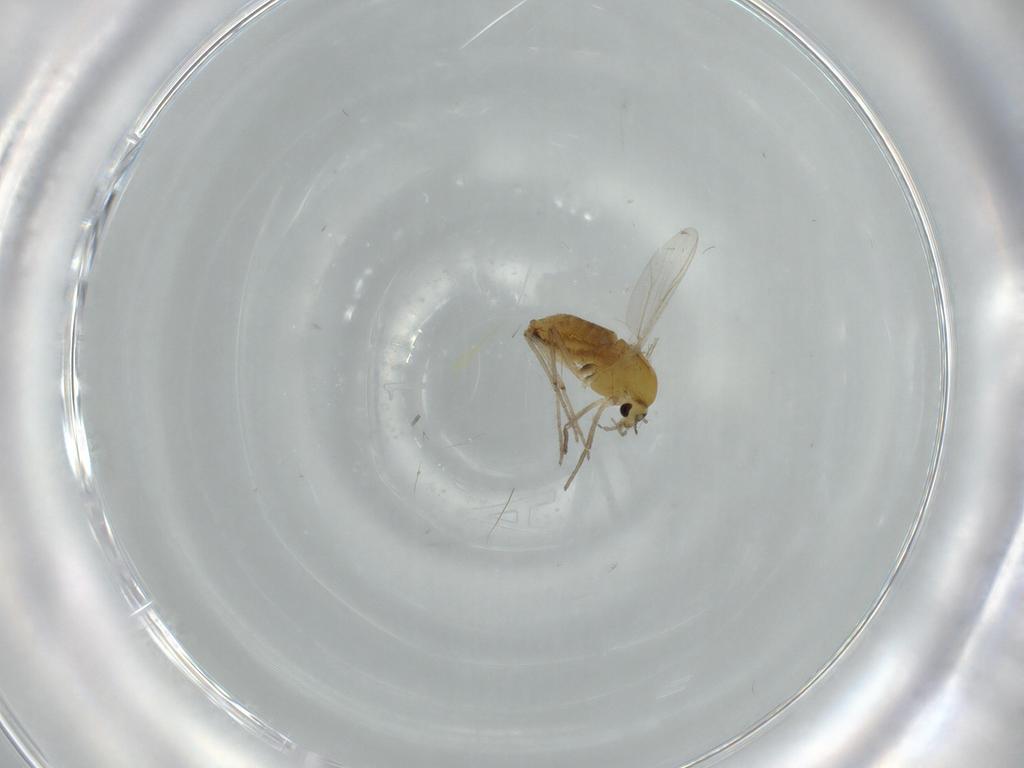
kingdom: Animalia
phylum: Arthropoda
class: Insecta
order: Diptera
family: Chironomidae
